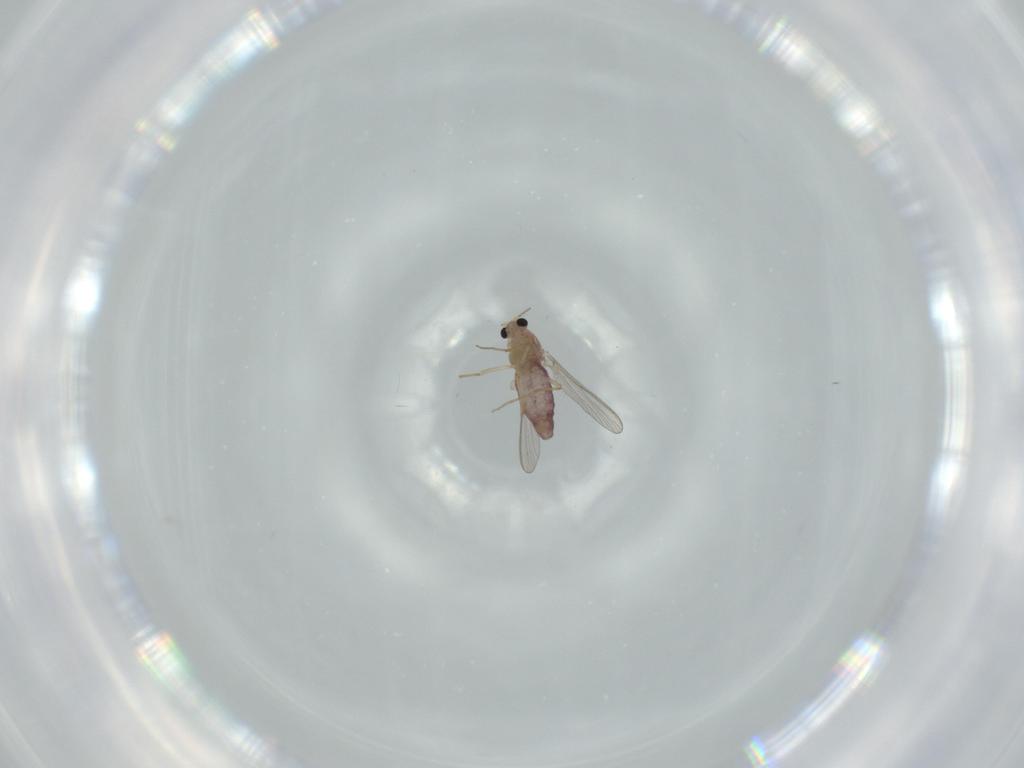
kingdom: Animalia
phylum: Arthropoda
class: Insecta
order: Diptera
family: Chironomidae
